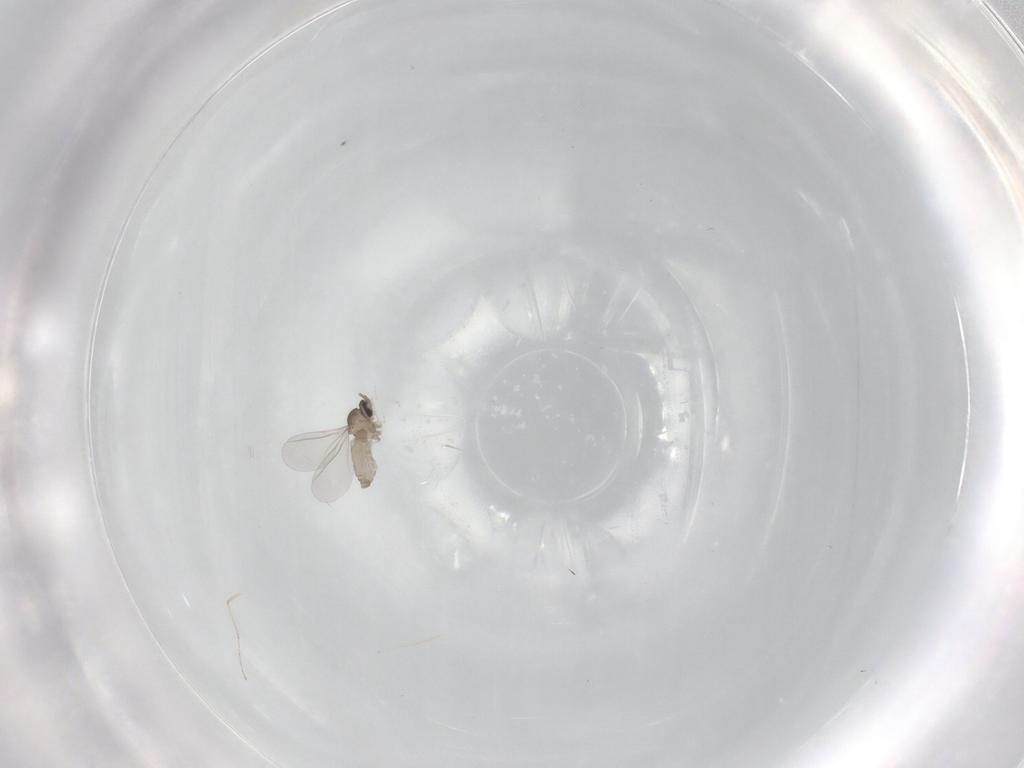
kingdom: Animalia
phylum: Arthropoda
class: Insecta
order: Diptera
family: Cecidomyiidae
